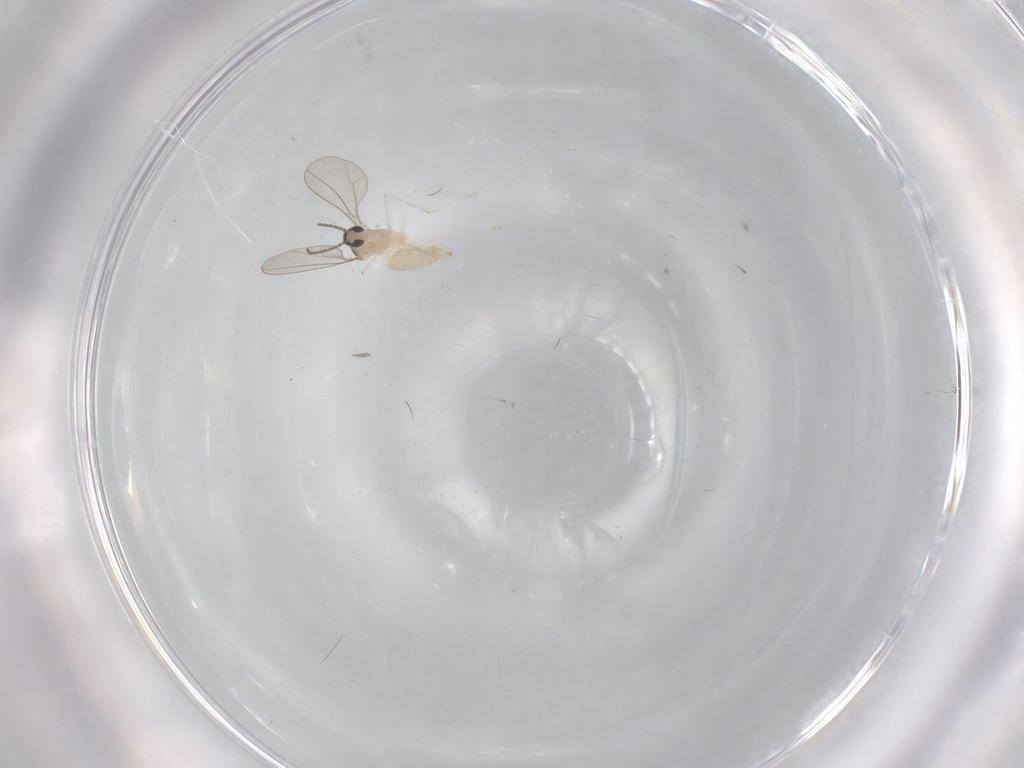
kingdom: Animalia
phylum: Arthropoda
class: Insecta
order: Diptera
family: Cecidomyiidae
